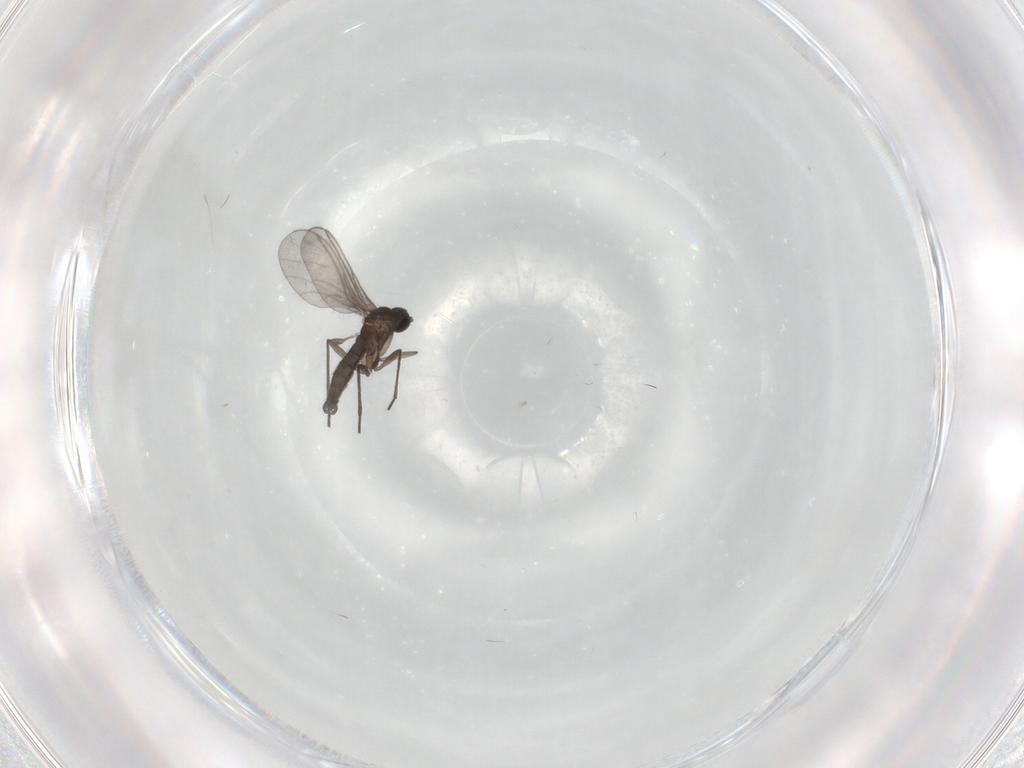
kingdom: Animalia
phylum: Arthropoda
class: Insecta
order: Diptera
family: Sciaridae
